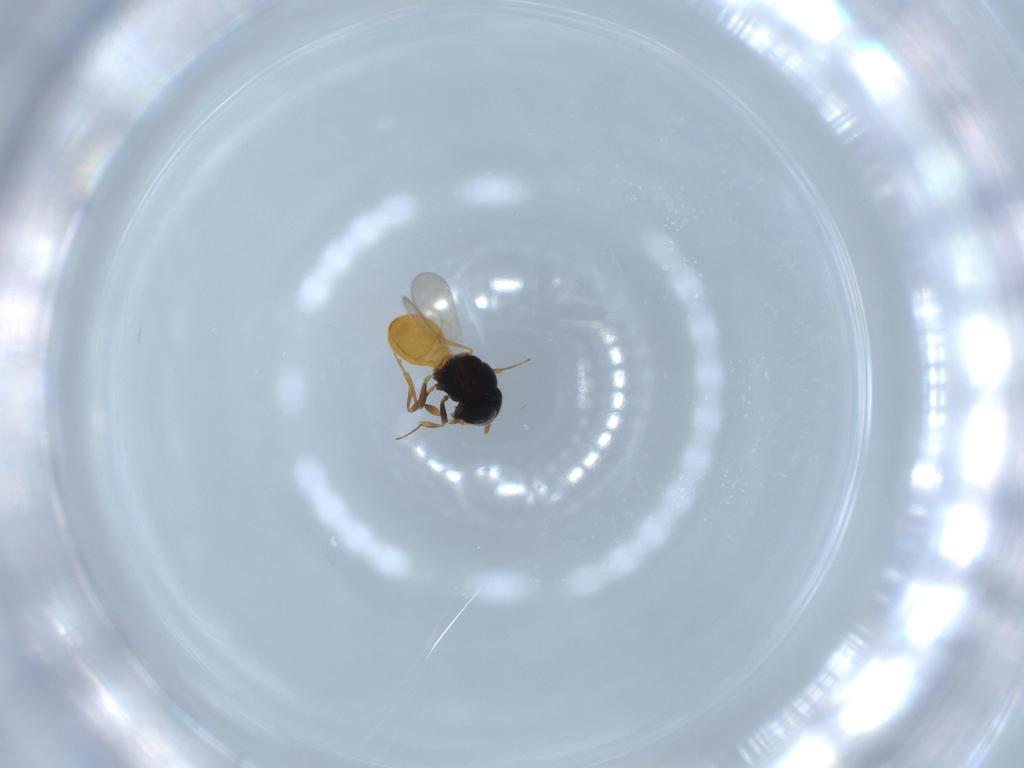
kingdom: Animalia
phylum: Arthropoda
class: Insecta
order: Hymenoptera
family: Scelionidae
